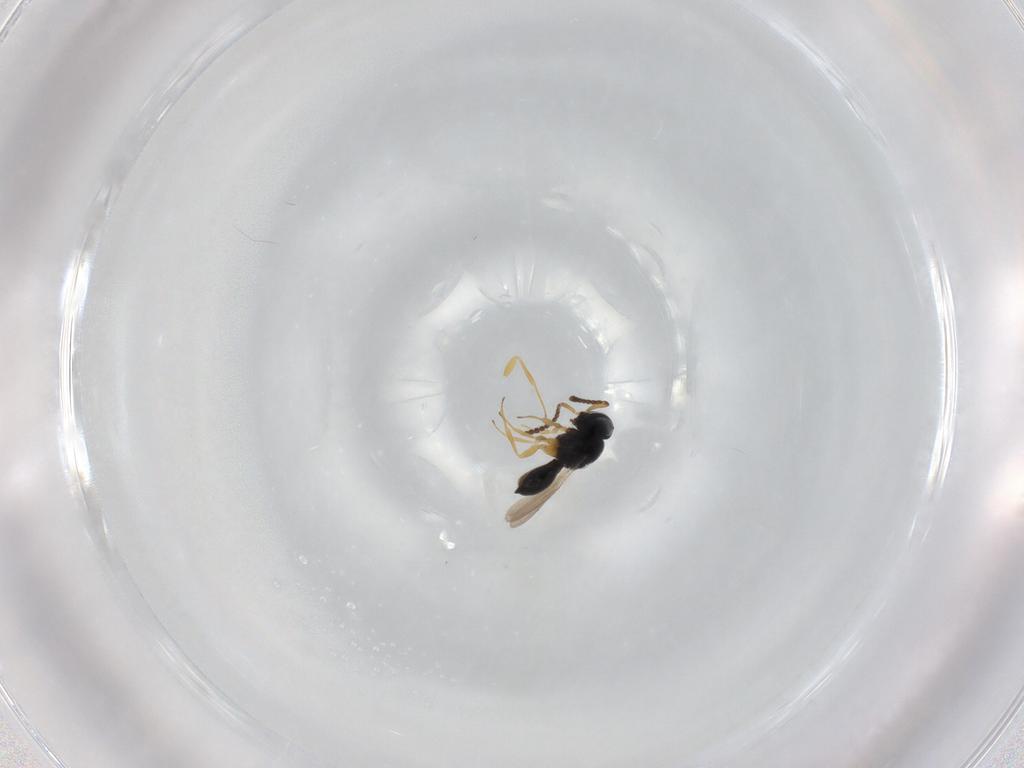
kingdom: Animalia
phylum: Arthropoda
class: Insecta
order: Hymenoptera
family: Scelionidae
